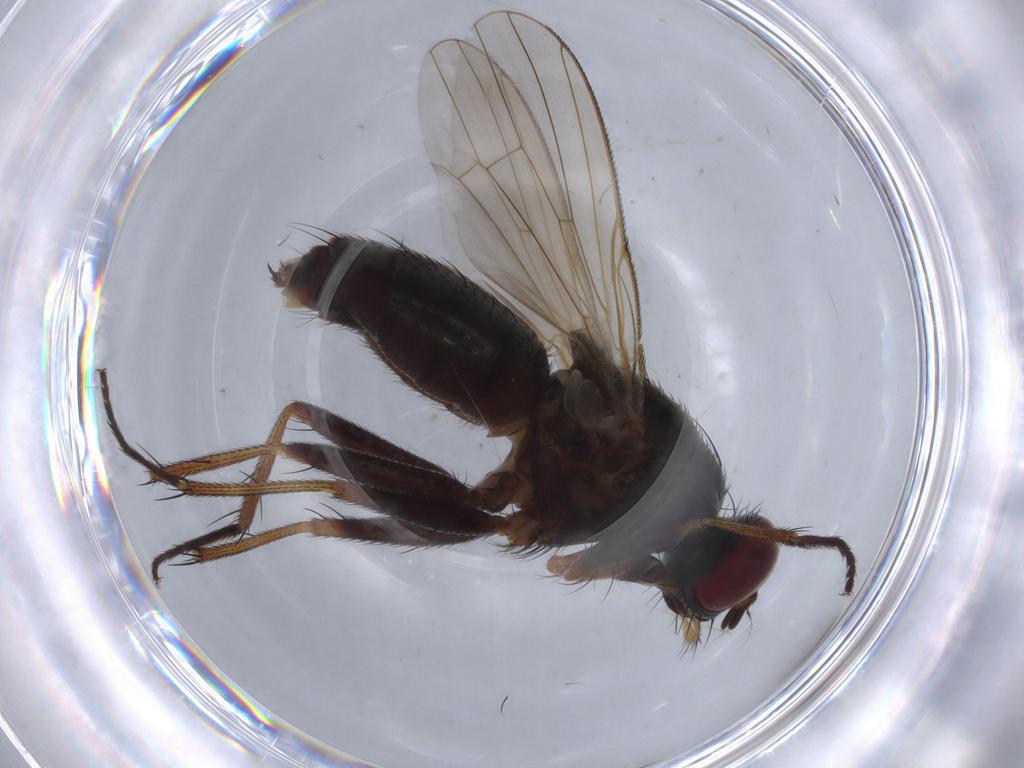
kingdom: Animalia
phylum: Arthropoda
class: Insecta
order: Diptera
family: Muscidae
